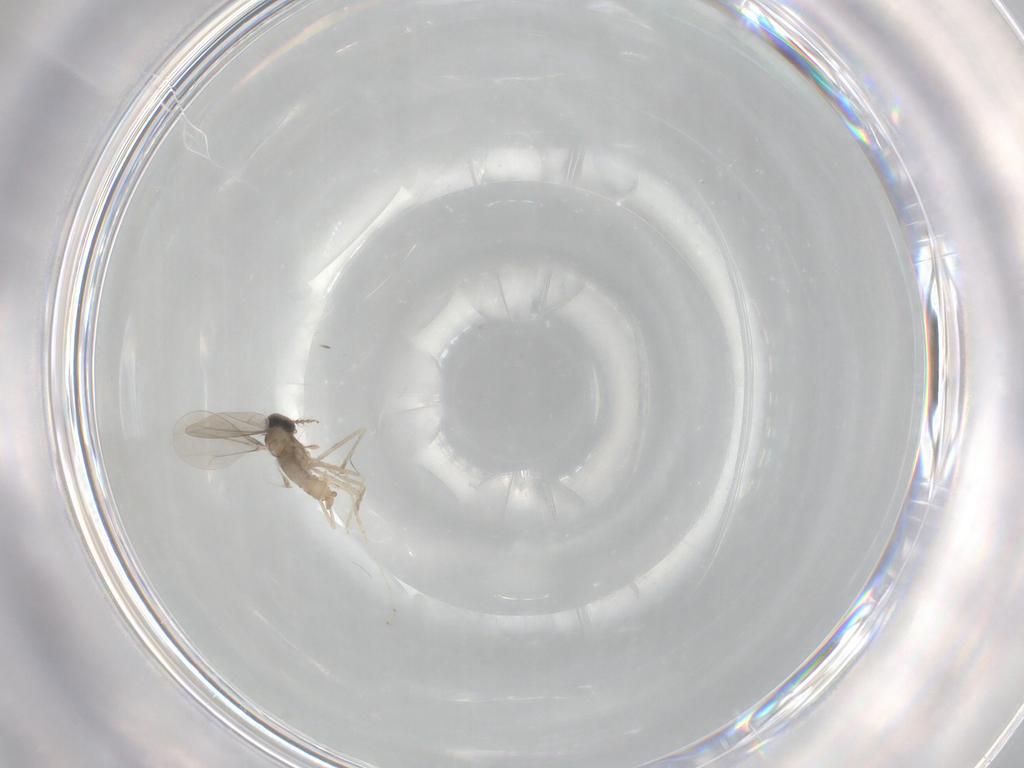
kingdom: Animalia
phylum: Arthropoda
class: Insecta
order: Diptera
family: Cecidomyiidae
